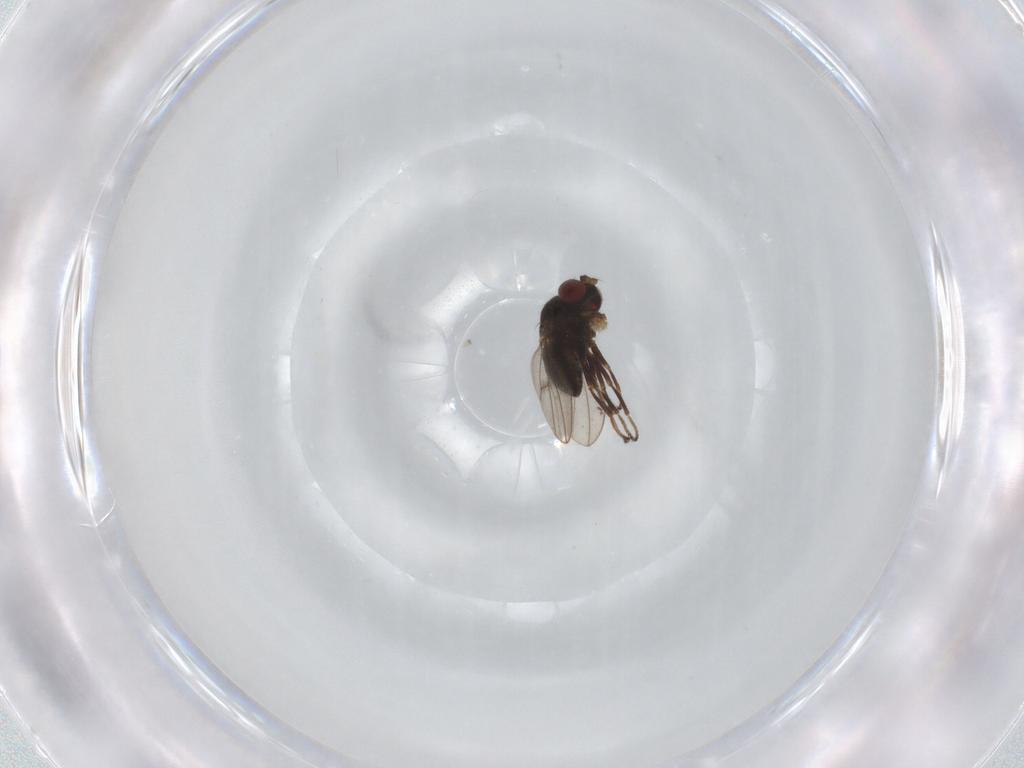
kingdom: Animalia
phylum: Arthropoda
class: Insecta
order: Diptera
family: Ephydridae
